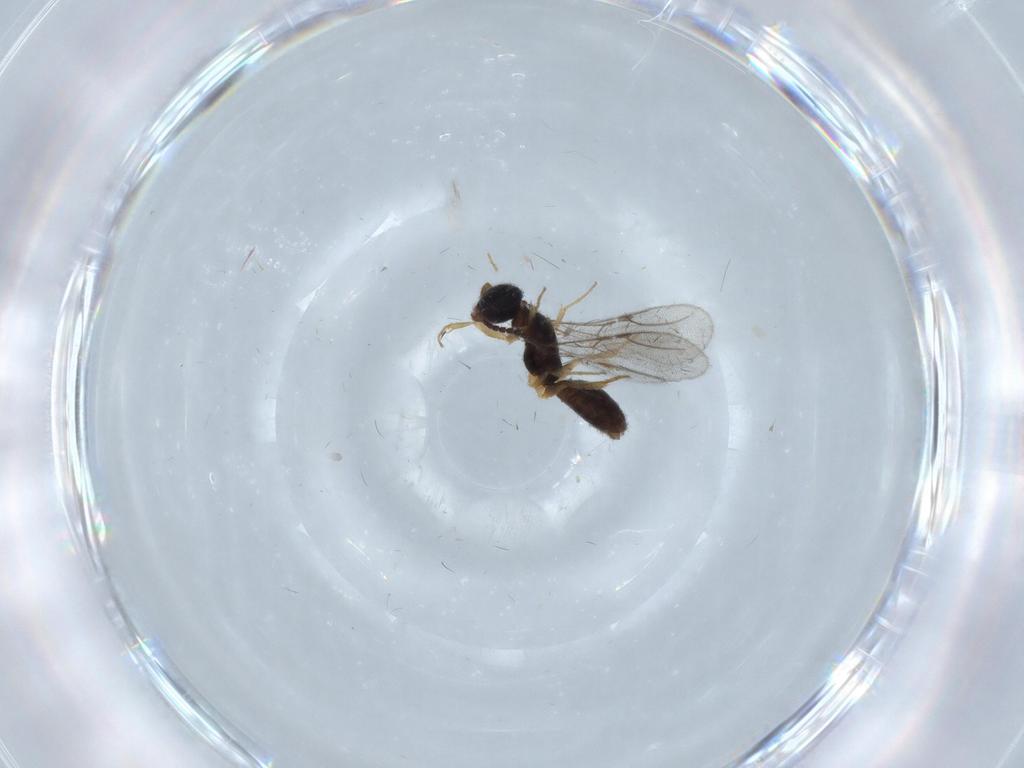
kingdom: Animalia
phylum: Arthropoda
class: Insecta
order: Hymenoptera
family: Bethylidae
